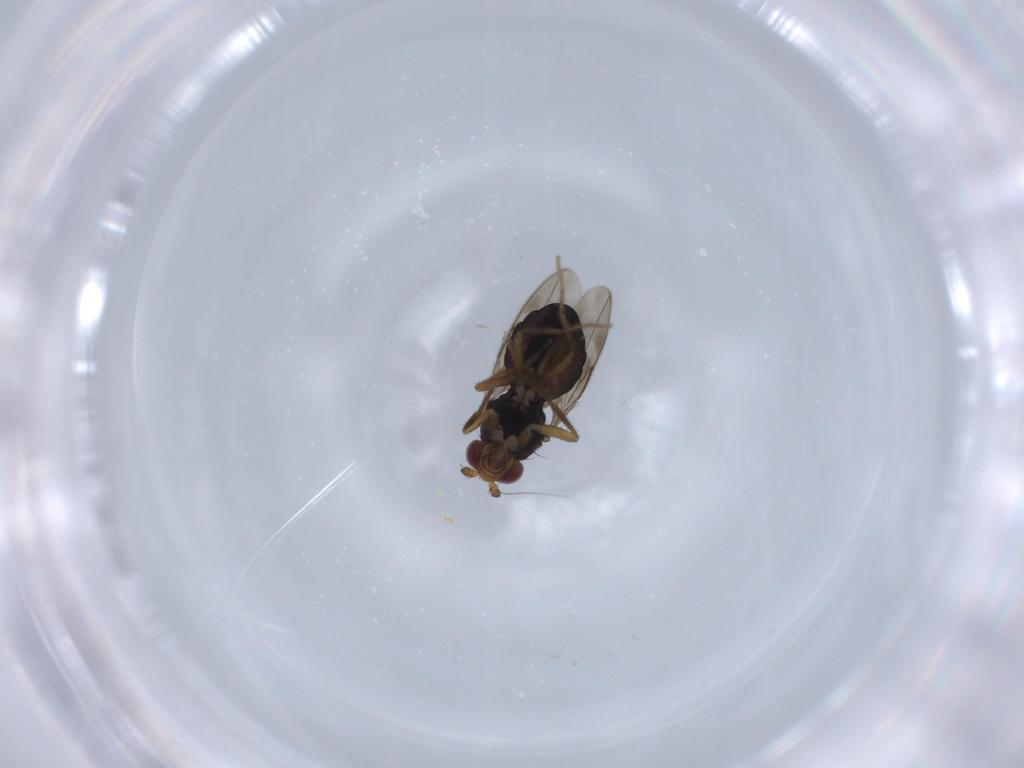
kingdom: Animalia
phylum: Arthropoda
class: Insecta
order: Diptera
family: Sphaeroceridae
